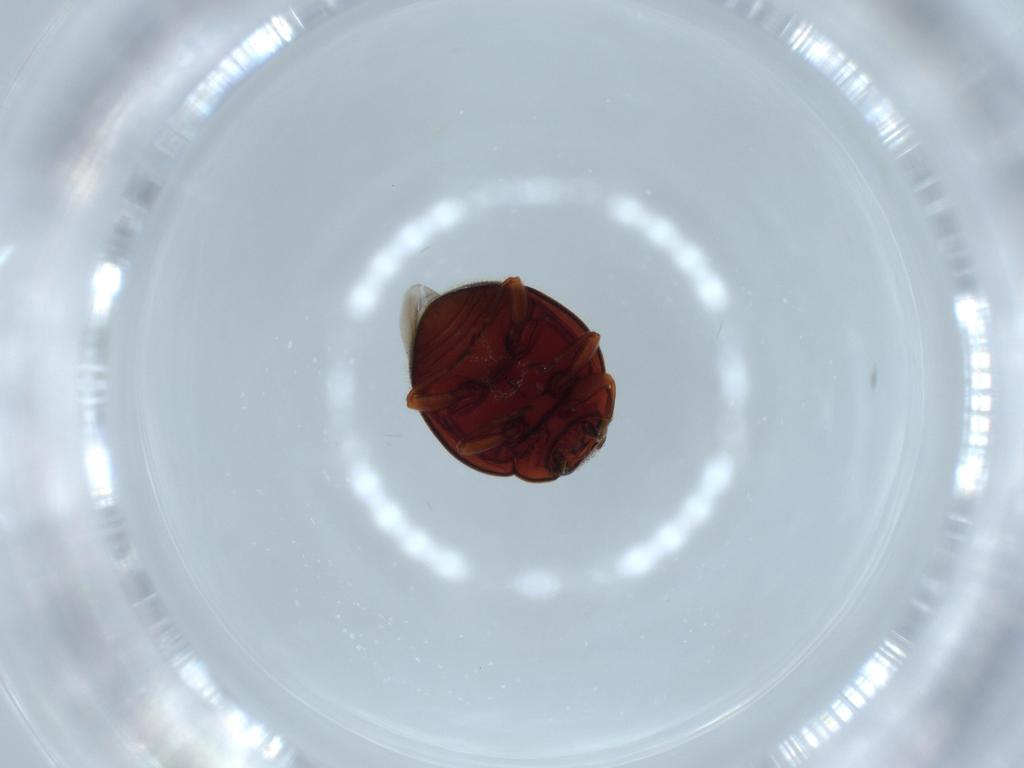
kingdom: Animalia
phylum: Arthropoda
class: Insecta
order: Coleoptera
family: Coccinellidae
